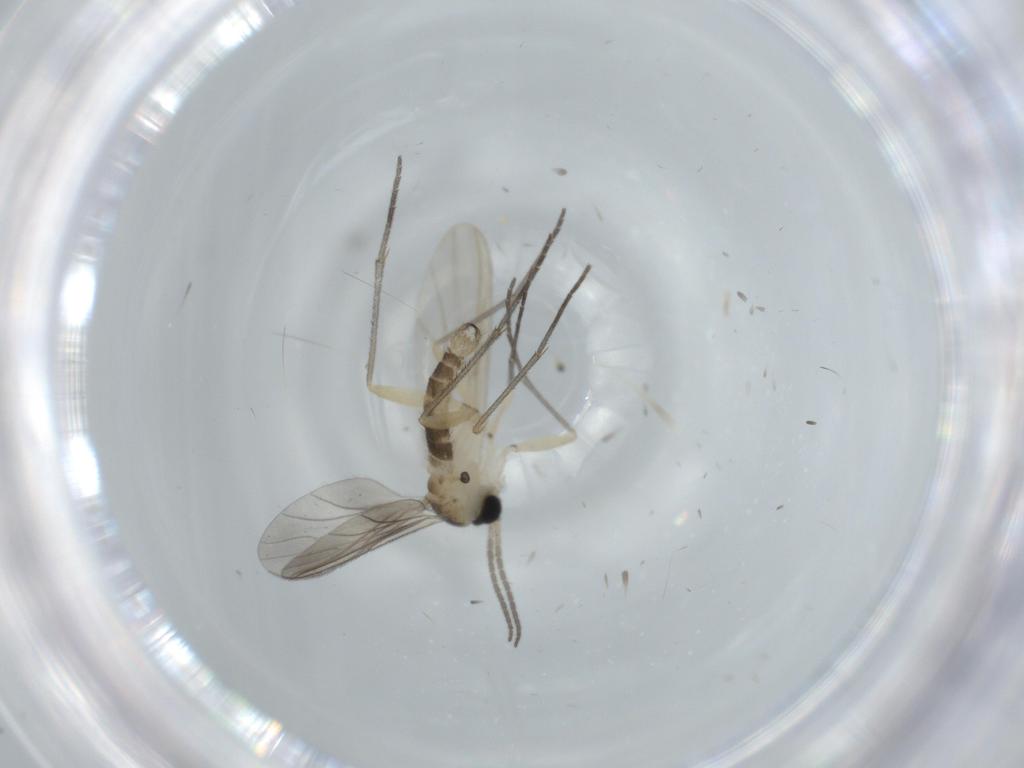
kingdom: Animalia
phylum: Arthropoda
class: Insecta
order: Diptera
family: Sciaridae
